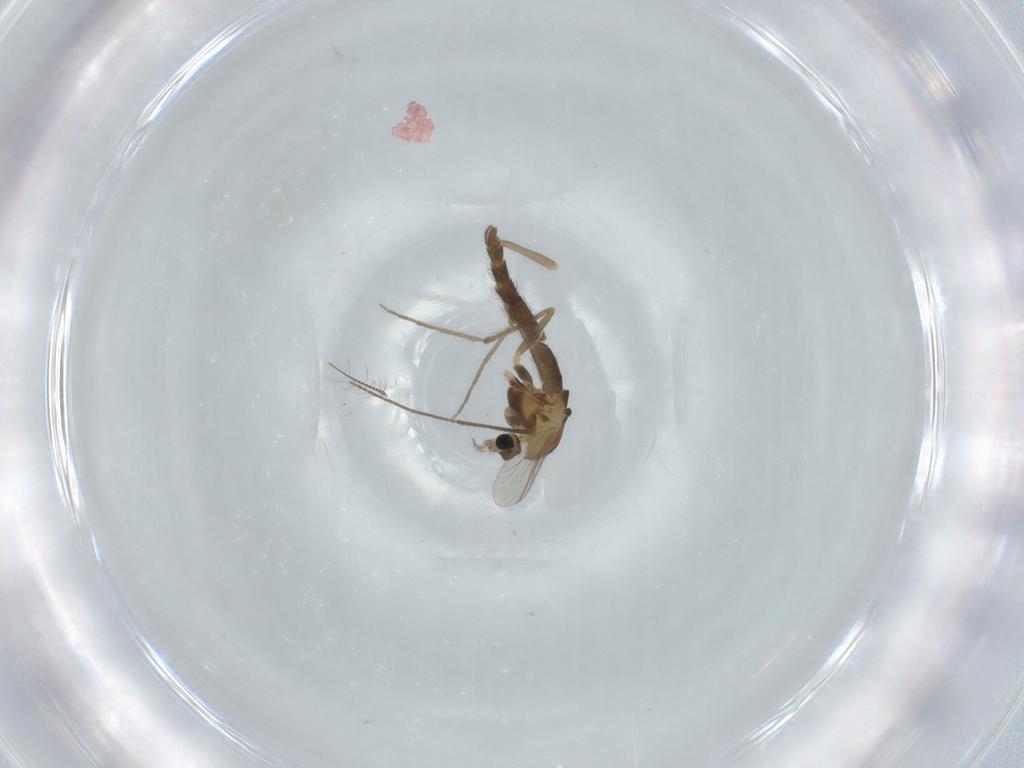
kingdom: Animalia
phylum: Arthropoda
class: Insecta
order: Diptera
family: Chironomidae
